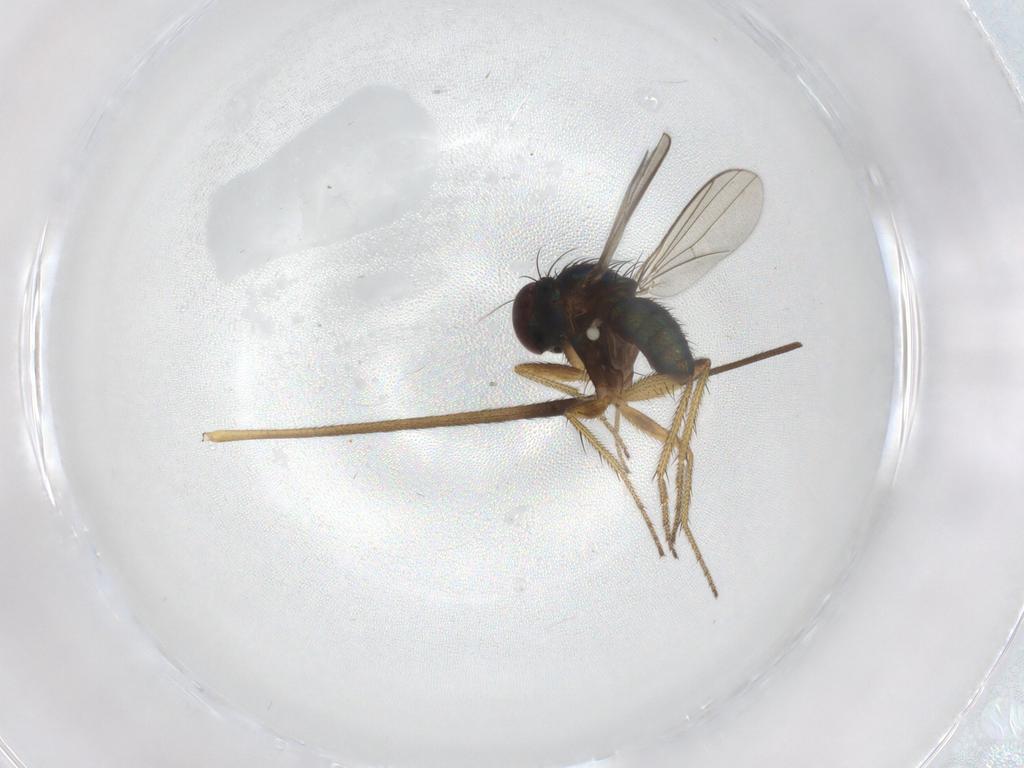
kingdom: Animalia
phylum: Arthropoda
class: Insecta
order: Diptera
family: Limoniidae
